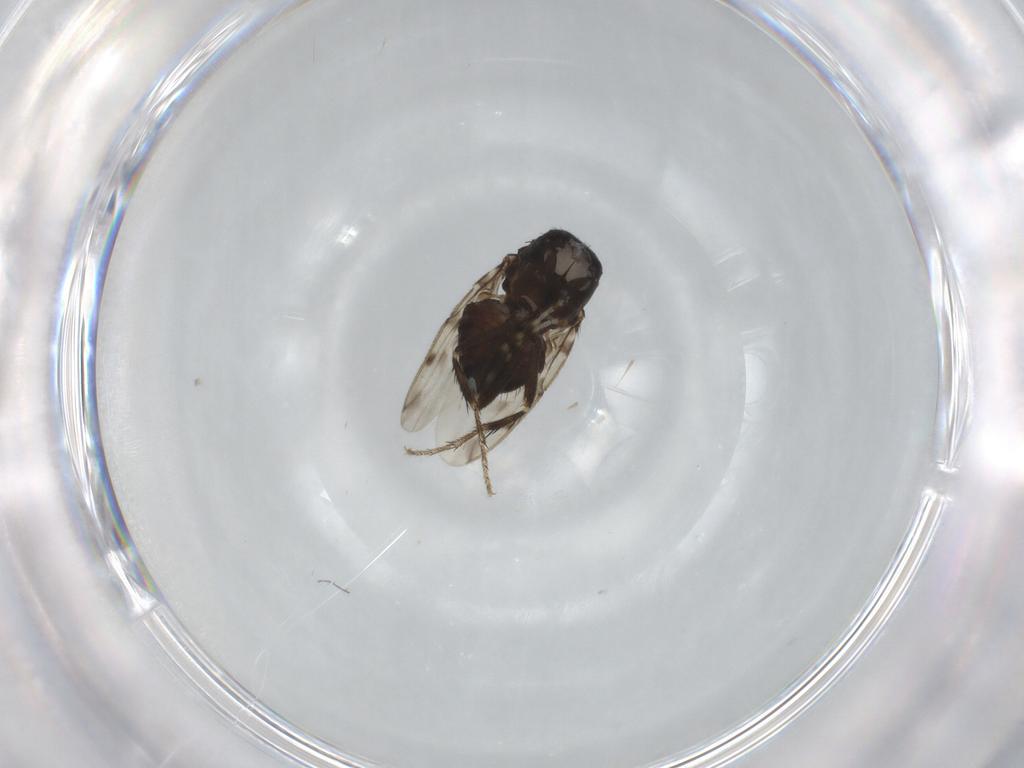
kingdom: Animalia
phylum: Arthropoda
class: Insecta
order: Diptera
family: Sphaeroceridae
